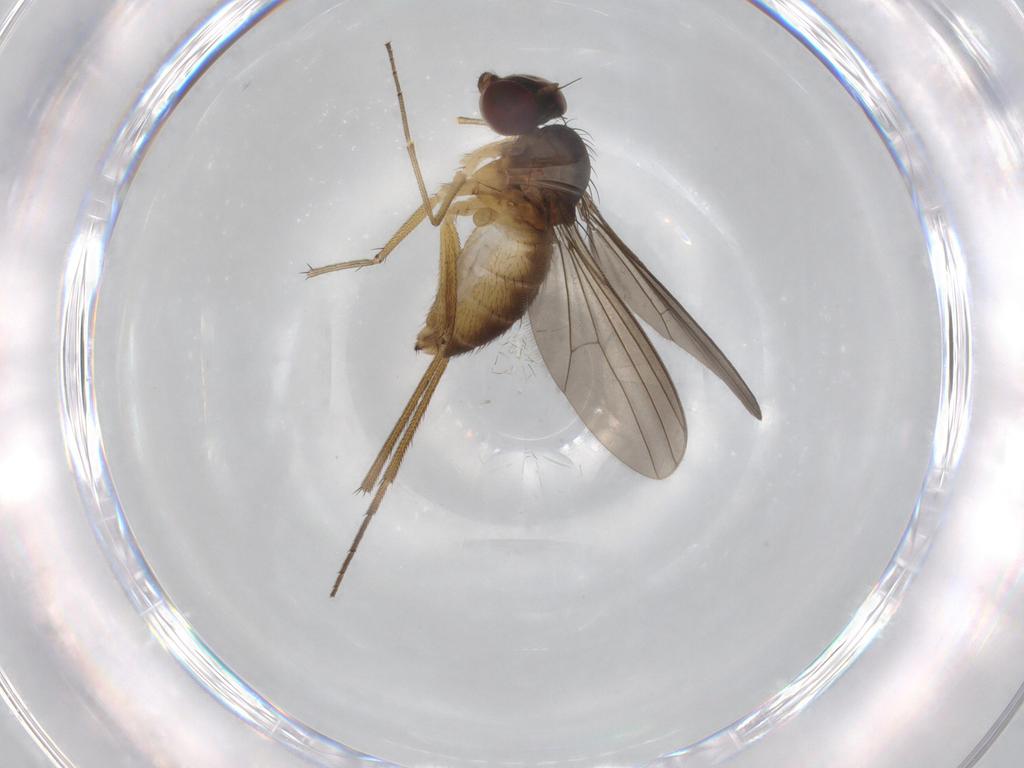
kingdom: Animalia
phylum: Arthropoda
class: Insecta
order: Diptera
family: Dolichopodidae
